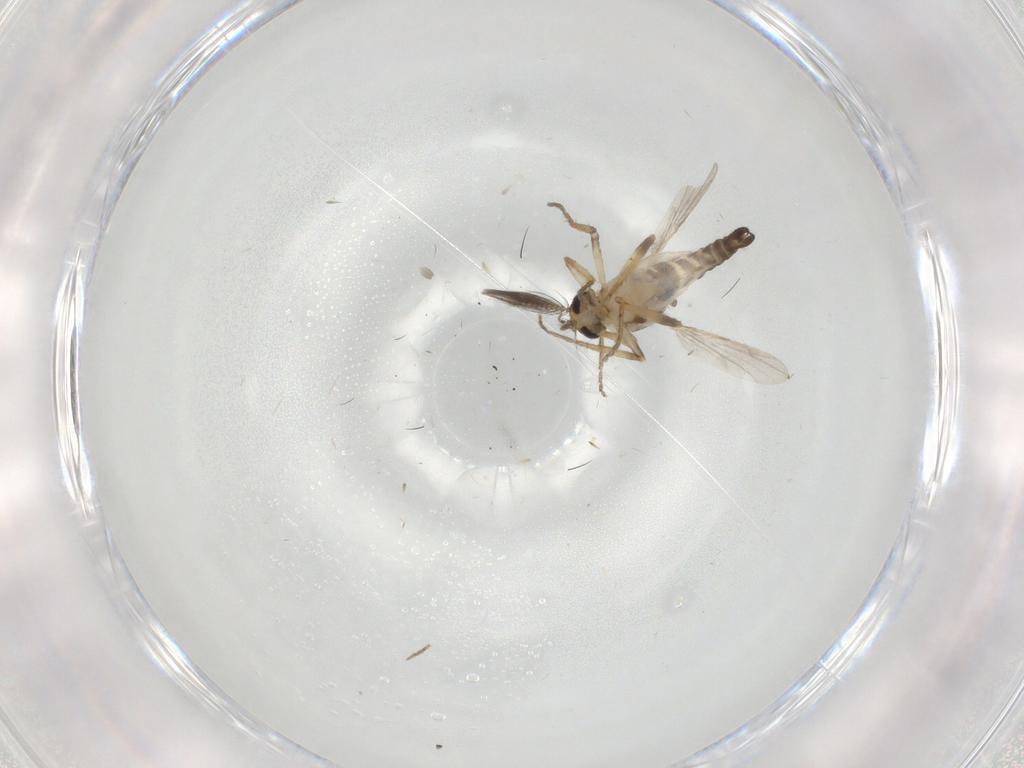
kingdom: Animalia
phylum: Arthropoda
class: Insecta
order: Diptera
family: Ceratopogonidae
